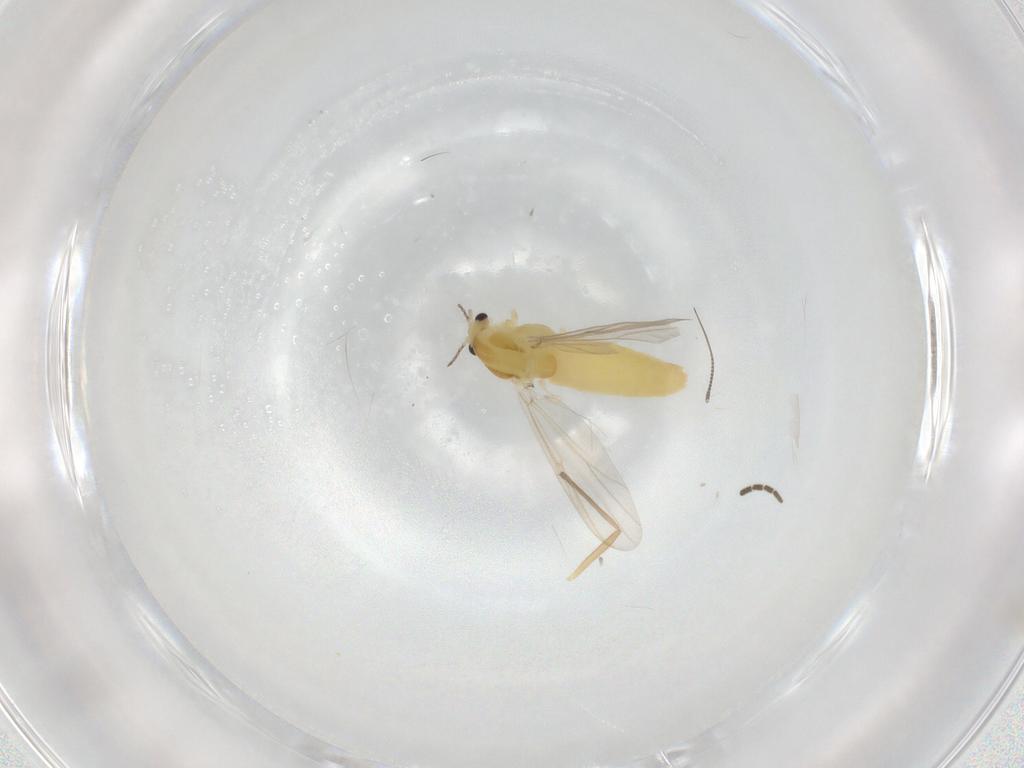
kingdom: Animalia
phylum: Arthropoda
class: Insecta
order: Diptera
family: Chironomidae
